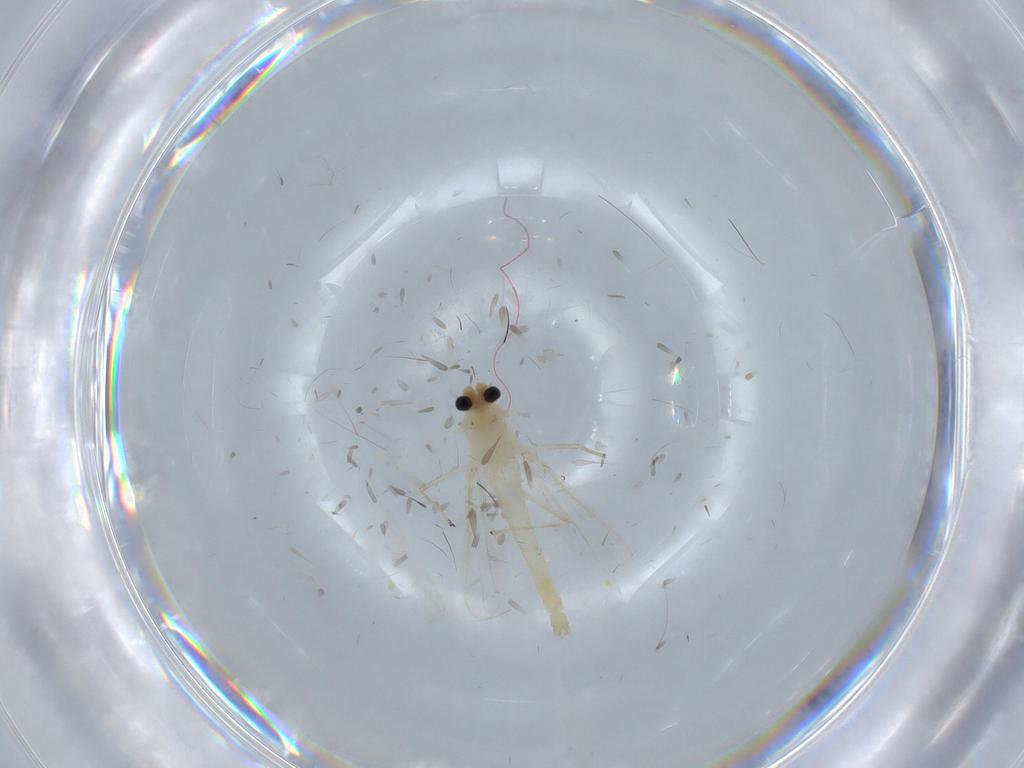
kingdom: Animalia
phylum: Arthropoda
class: Insecta
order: Diptera
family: Chironomidae
